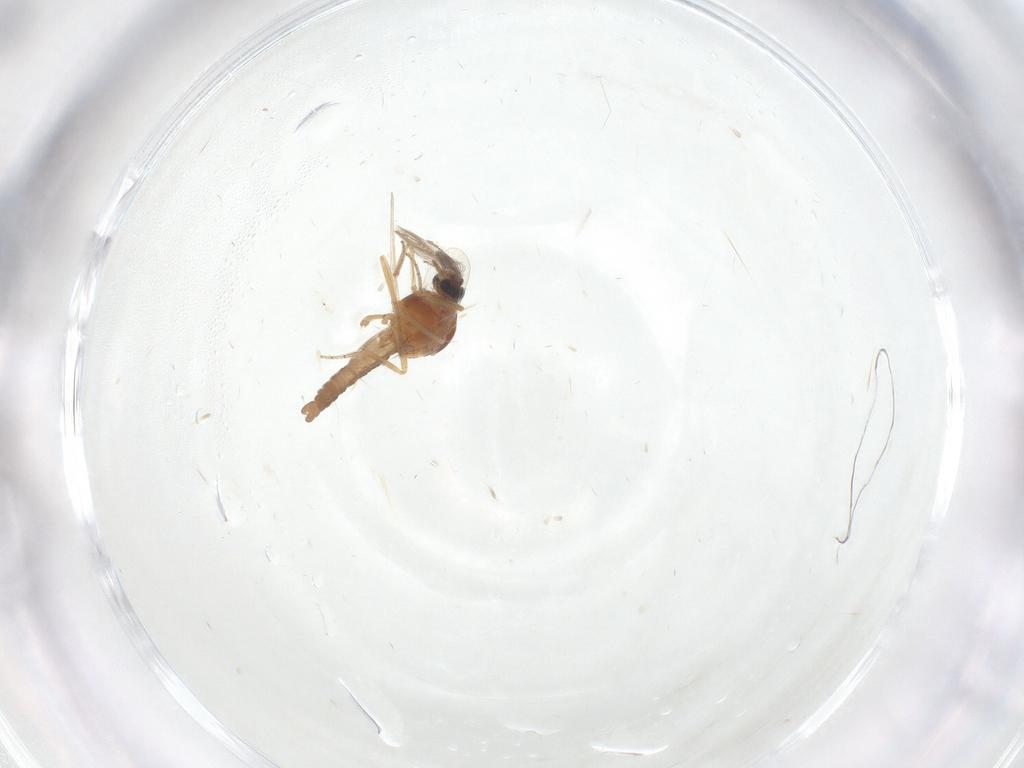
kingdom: Animalia
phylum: Arthropoda
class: Insecta
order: Diptera
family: Ceratopogonidae
